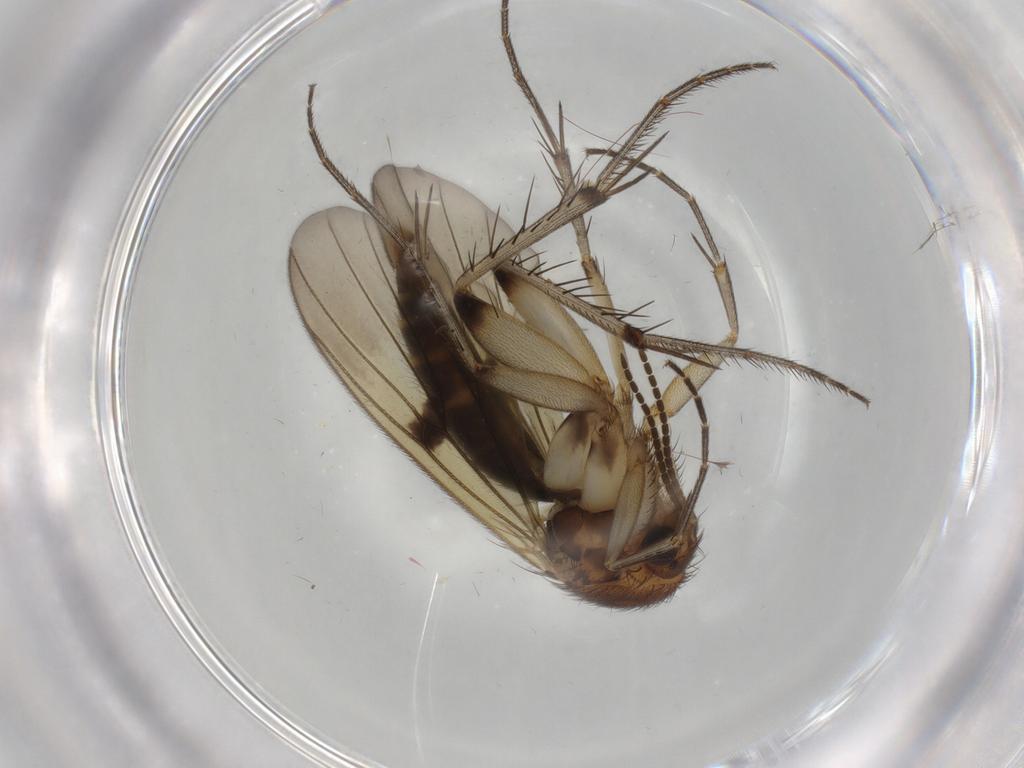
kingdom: Animalia
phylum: Arthropoda
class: Insecta
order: Diptera
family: Mycetophilidae
